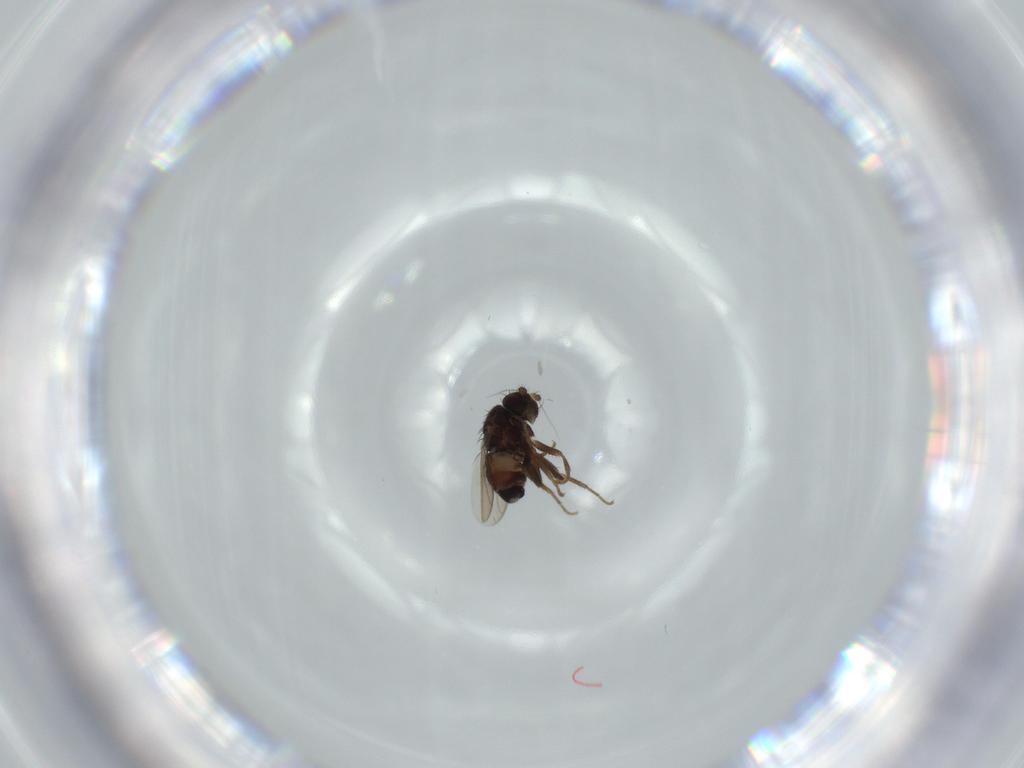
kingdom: Animalia
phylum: Arthropoda
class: Insecta
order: Diptera
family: Sphaeroceridae
